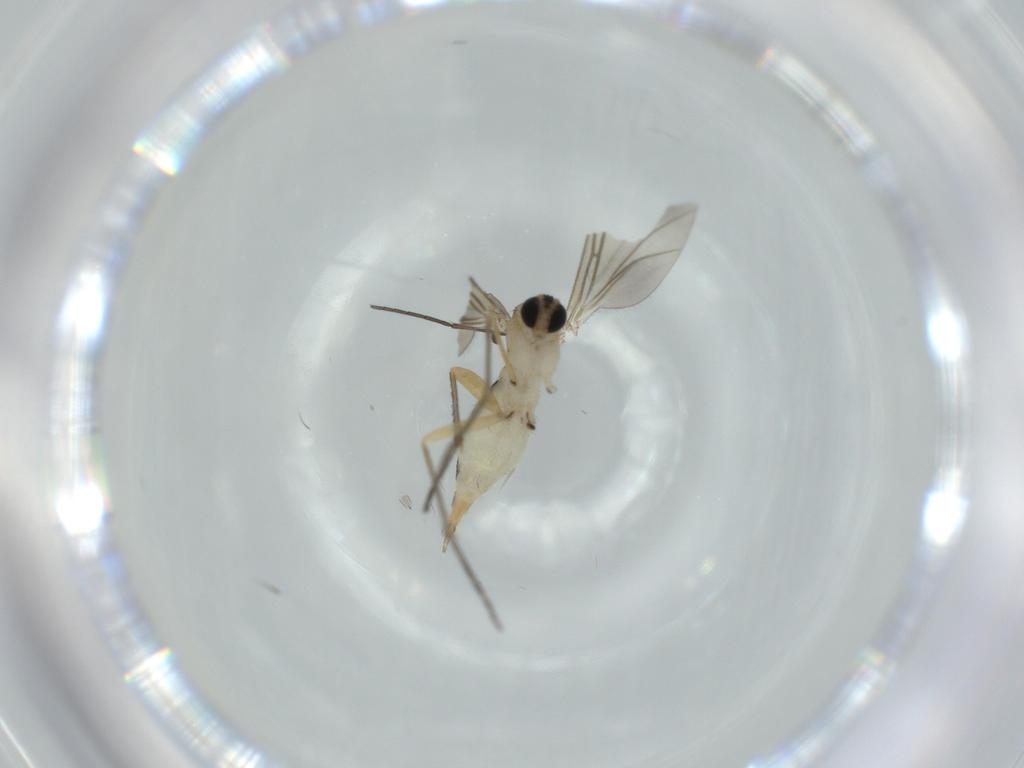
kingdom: Animalia
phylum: Arthropoda
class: Insecta
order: Diptera
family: Sciaridae
